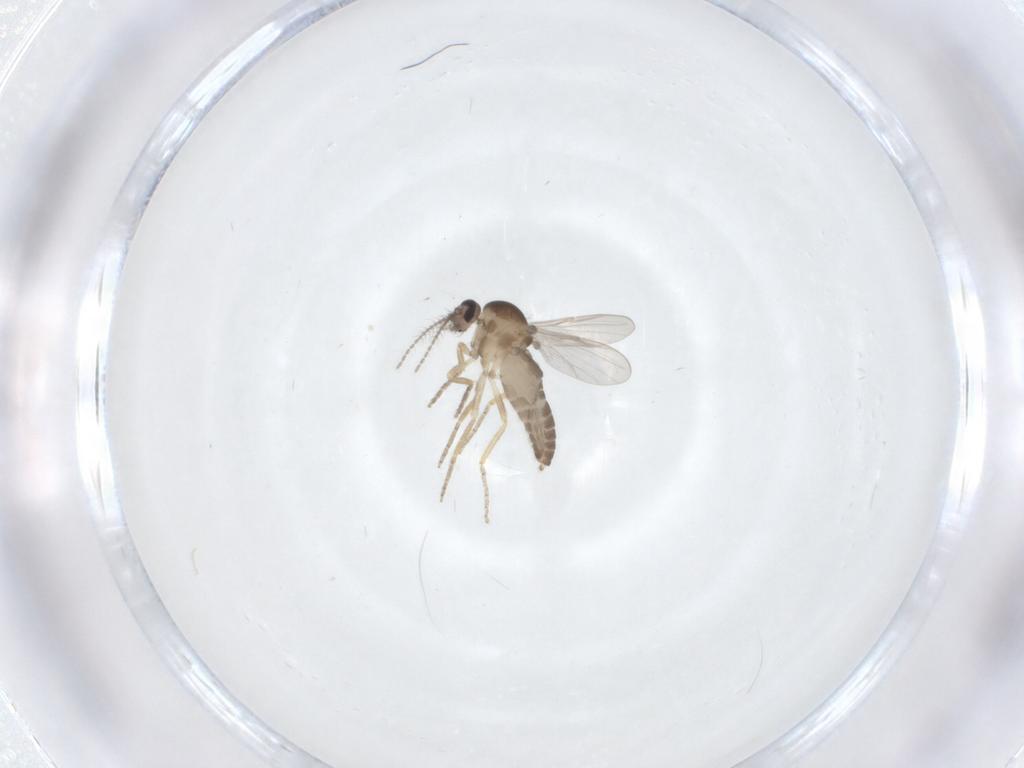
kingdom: Animalia
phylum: Arthropoda
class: Insecta
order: Diptera
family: Ceratopogonidae
